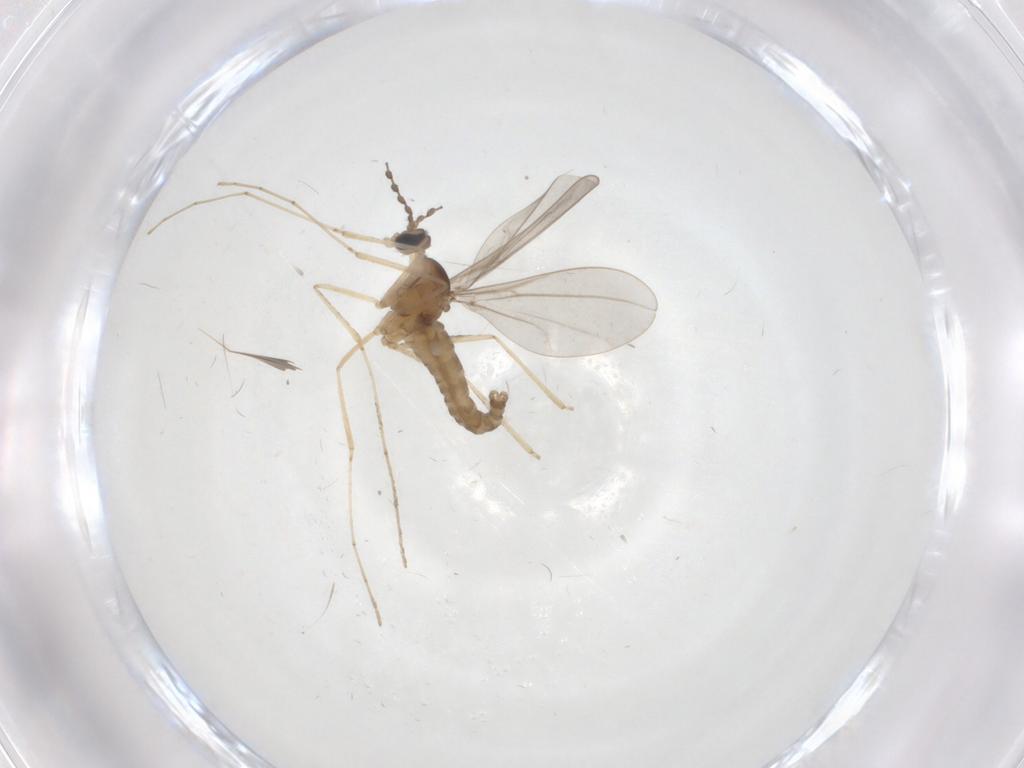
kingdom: Animalia
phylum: Arthropoda
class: Insecta
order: Diptera
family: Cecidomyiidae
